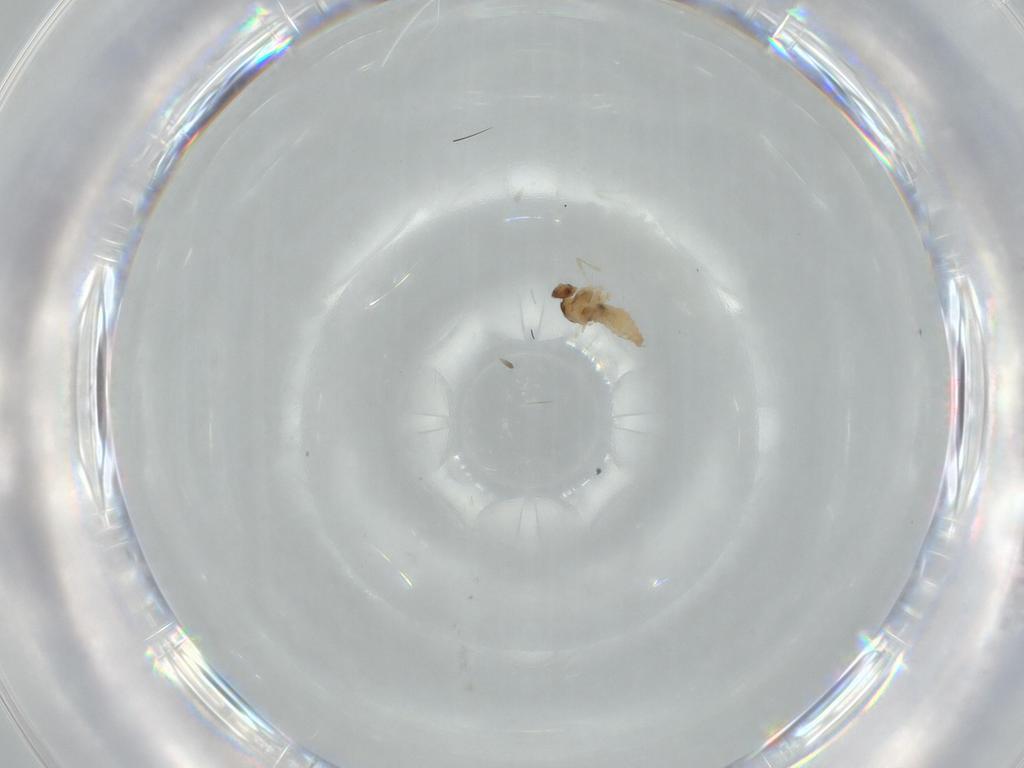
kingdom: Animalia
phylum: Arthropoda
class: Insecta
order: Diptera
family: Cecidomyiidae
